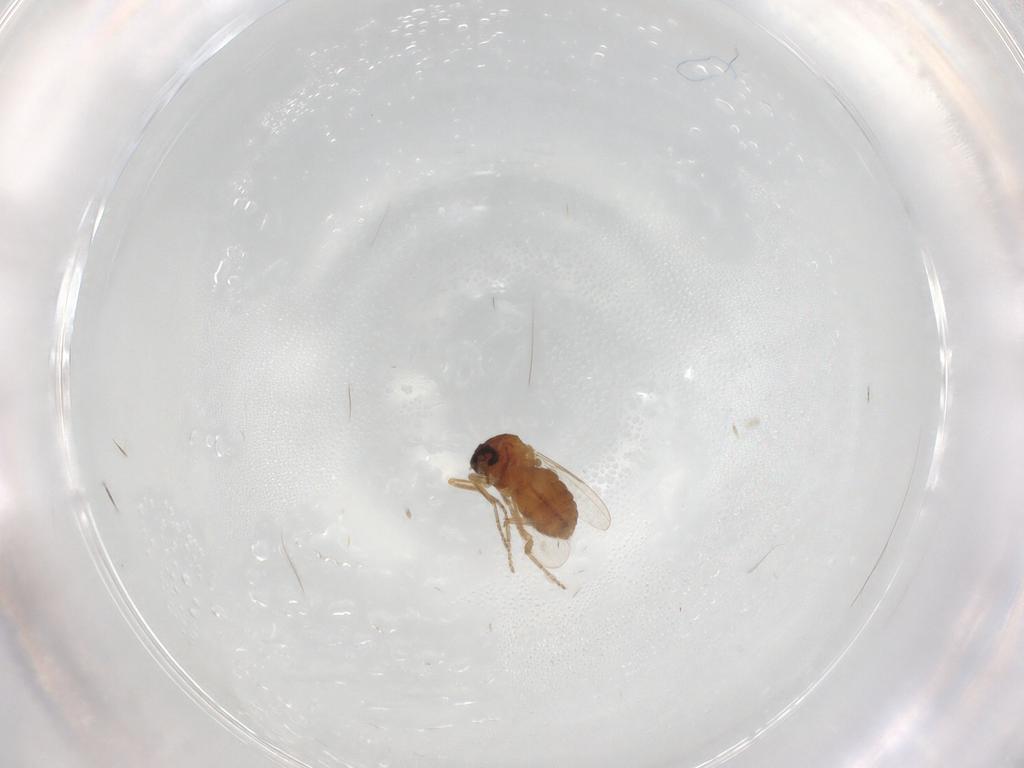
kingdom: Animalia
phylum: Arthropoda
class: Insecta
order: Diptera
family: Ceratopogonidae
